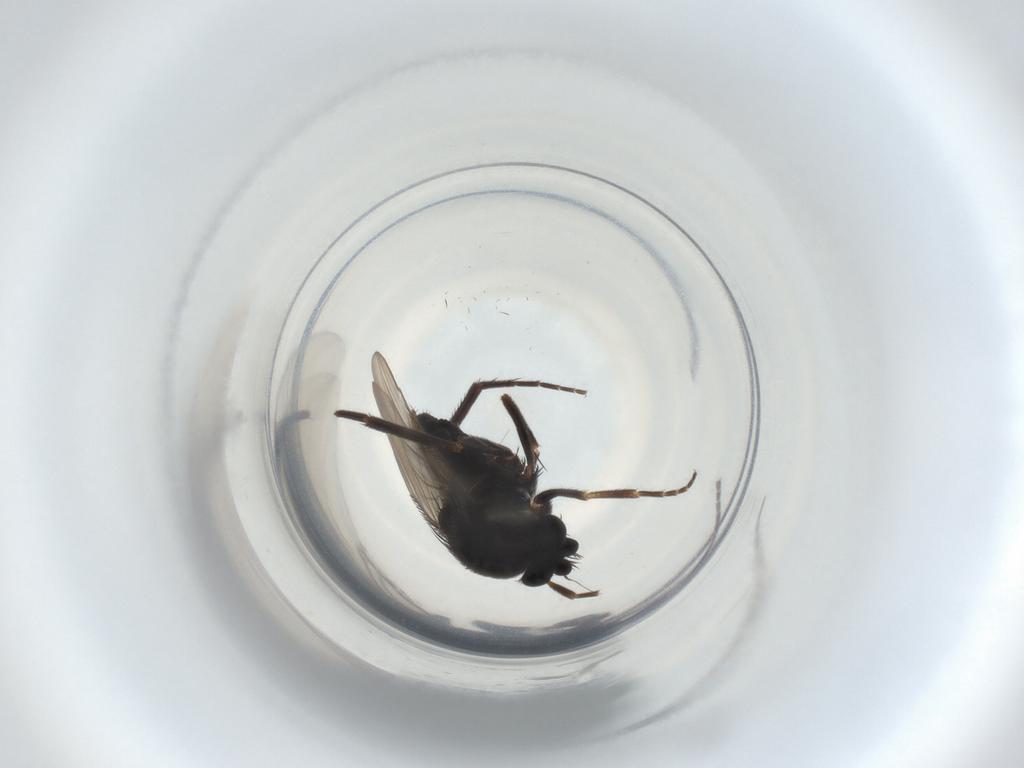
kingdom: Animalia
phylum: Arthropoda
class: Insecta
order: Diptera
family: Phoridae
